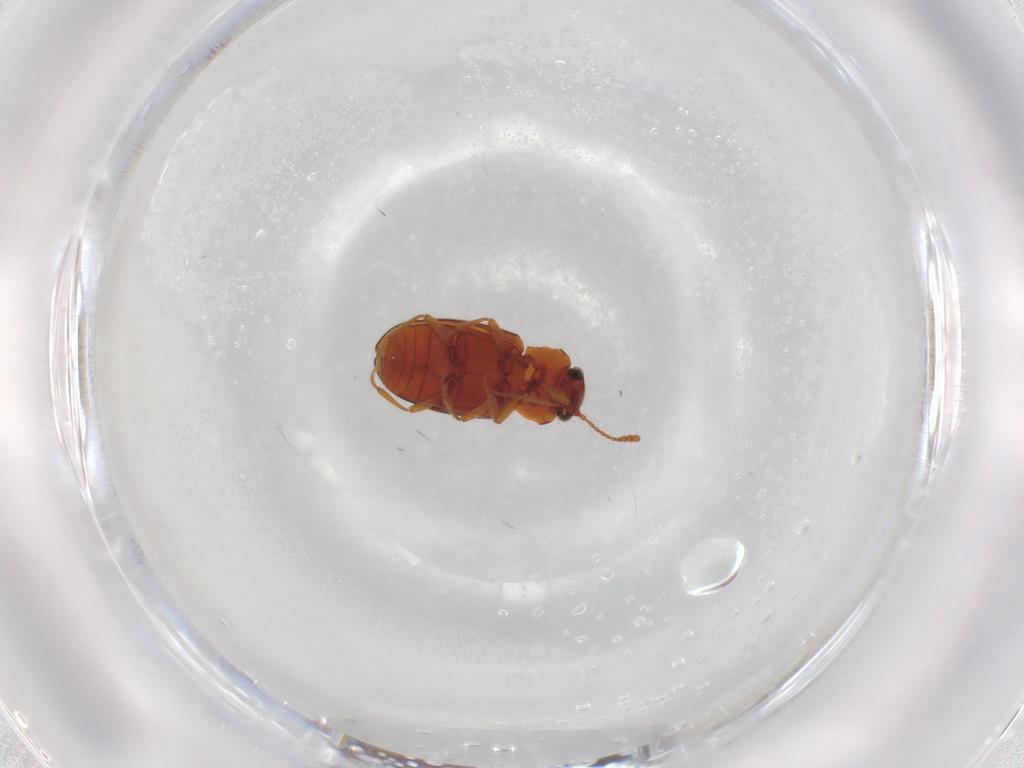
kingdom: Animalia
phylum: Arthropoda
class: Insecta
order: Coleoptera
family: Cryptophagidae
